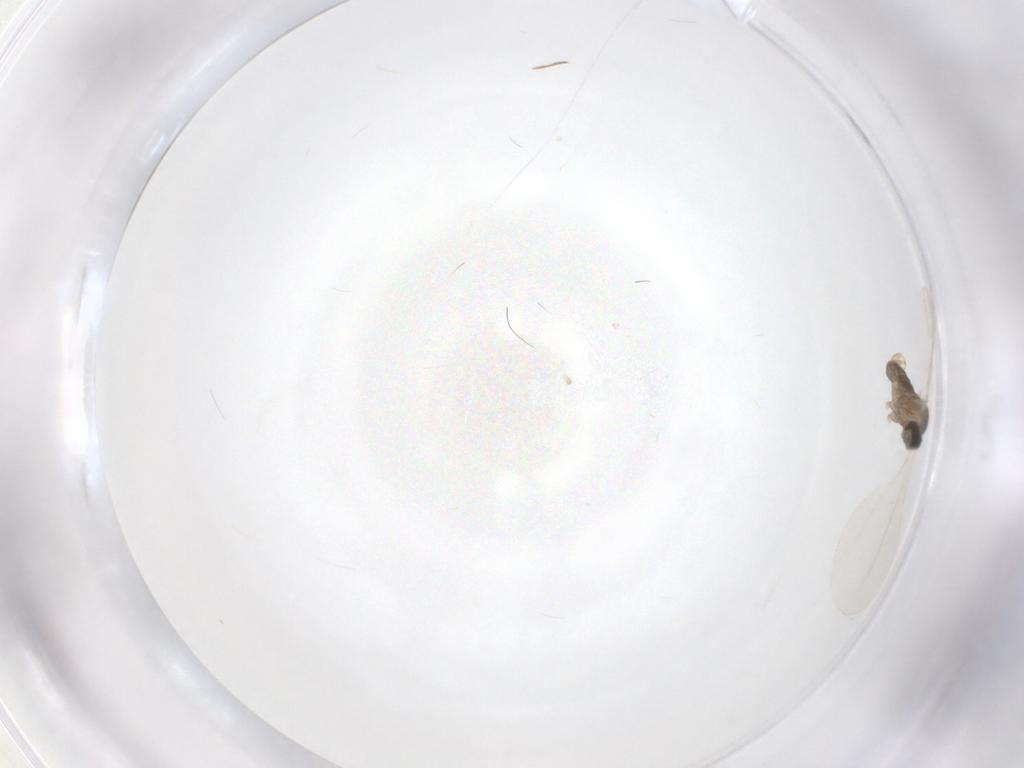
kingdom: Animalia
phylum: Arthropoda
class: Insecta
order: Diptera
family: Cecidomyiidae
